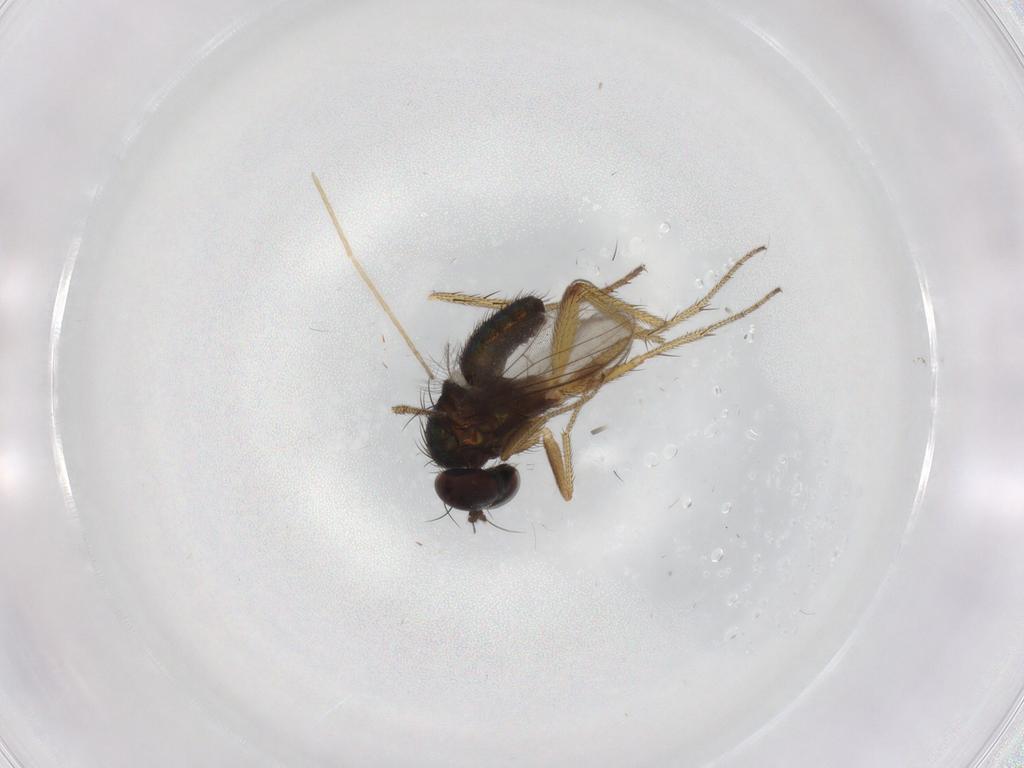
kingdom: Animalia
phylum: Arthropoda
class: Insecta
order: Diptera
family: Chironomidae
